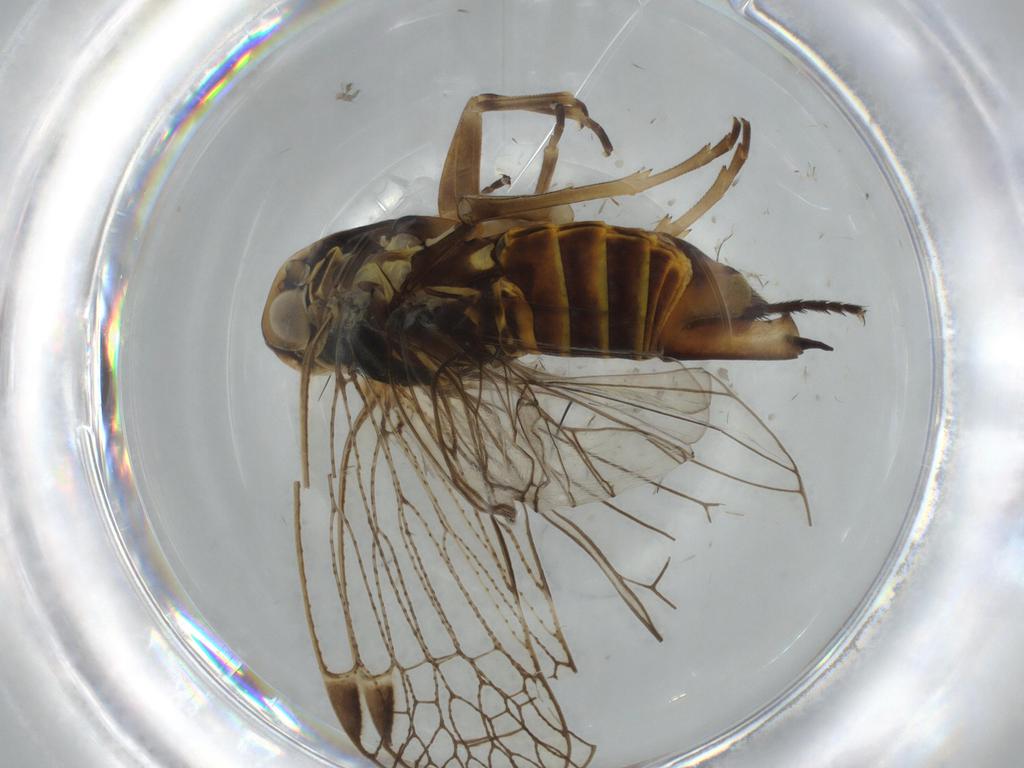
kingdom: Animalia
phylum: Arthropoda
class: Insecta
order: Hemiptera
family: Cixiidae
